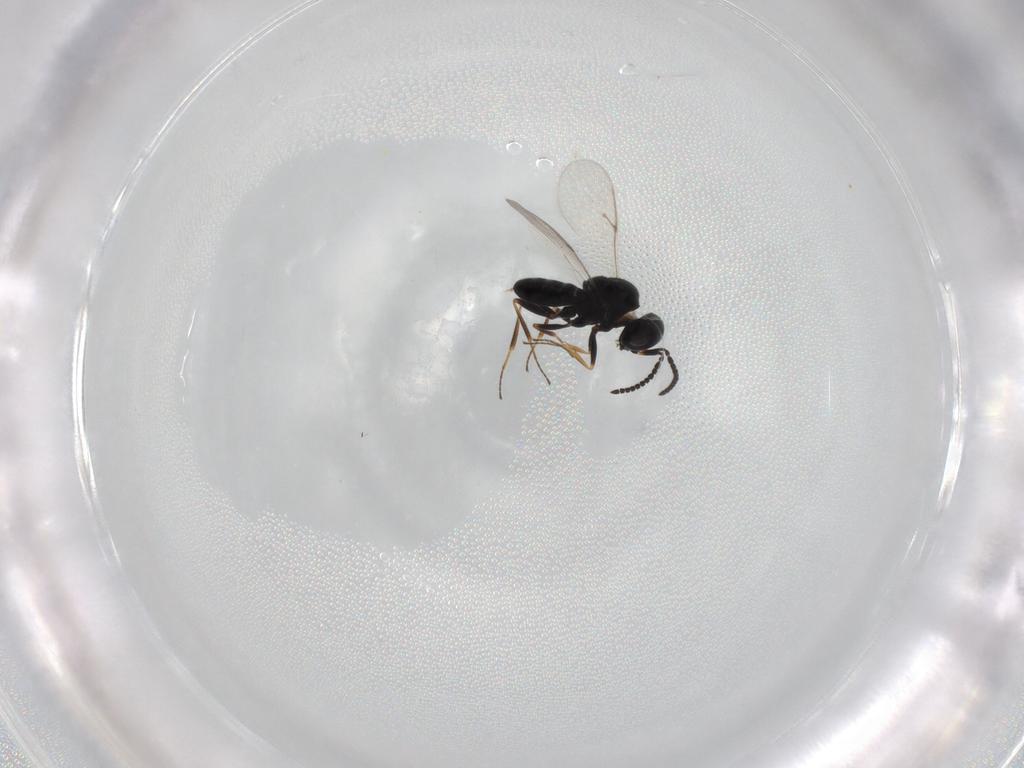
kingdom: Animalia
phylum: Arthropoda
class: Insecta
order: Hymenoptera
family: Scelionidae
